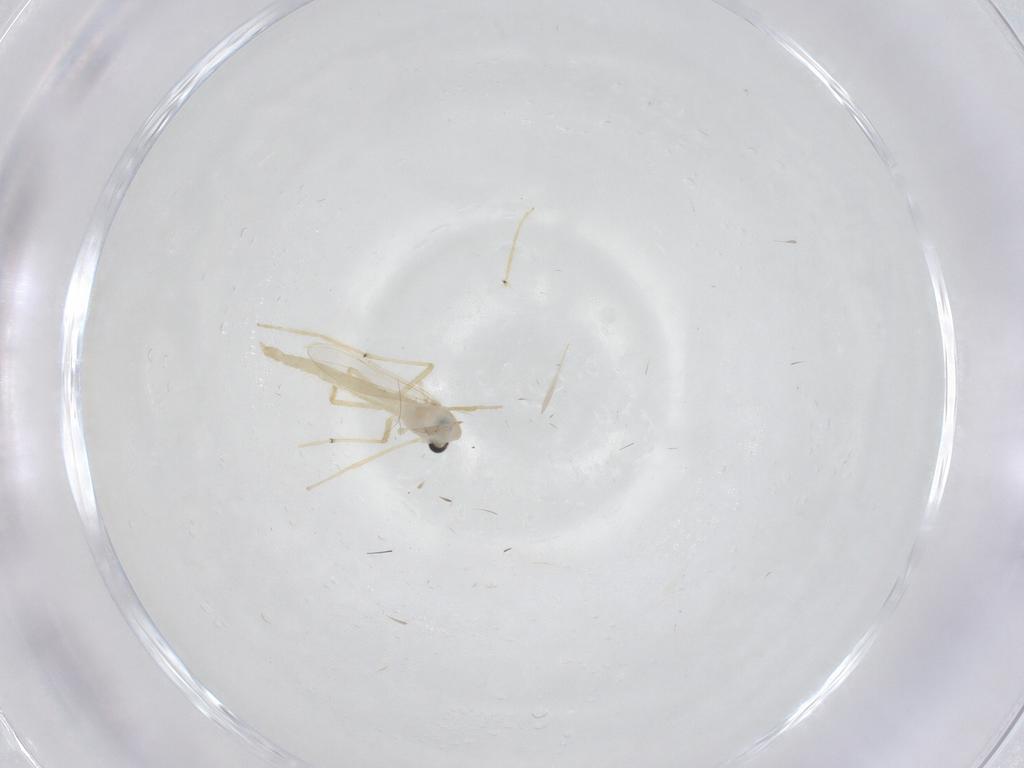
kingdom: Animalia
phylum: Arthropoda
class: Insecta
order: Diptera
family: Chironomidae
